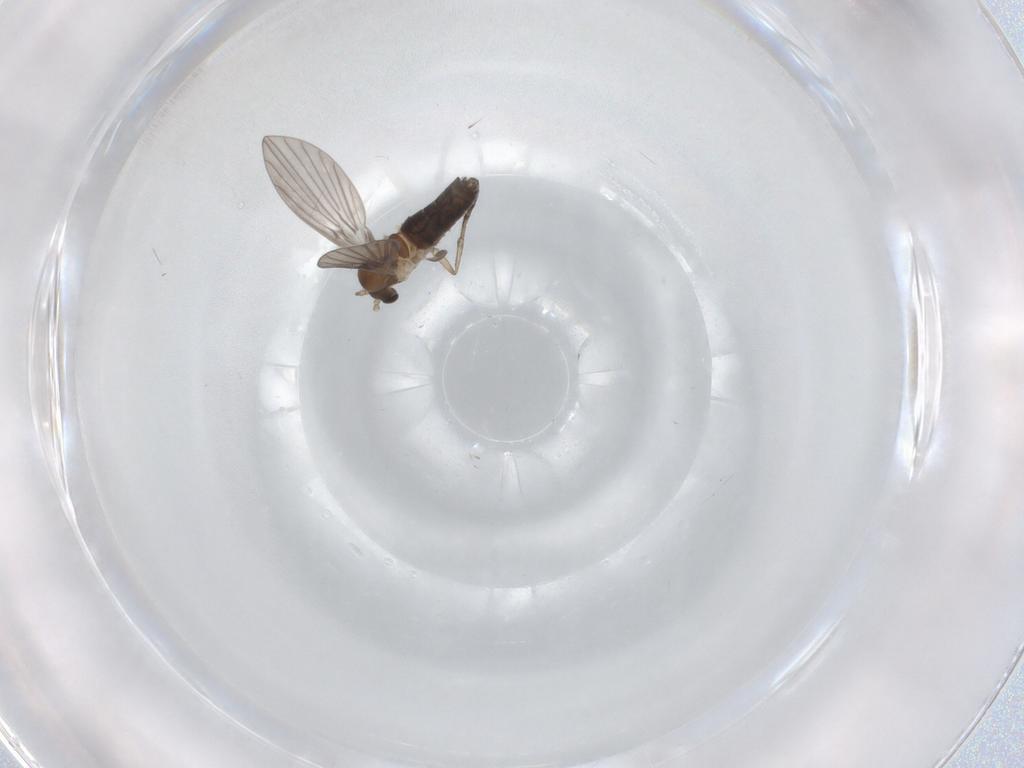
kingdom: Animalia
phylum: Arthropoda
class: Insecta
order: Diptera
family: Psychodidae
